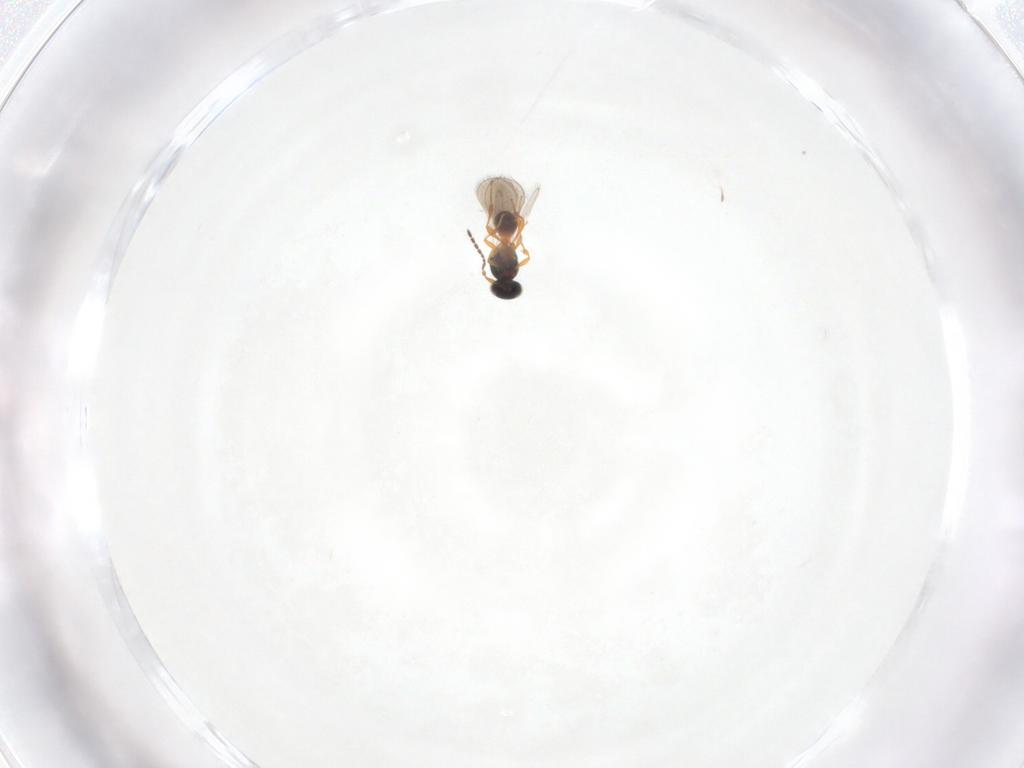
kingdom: Animalia
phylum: Arthropoda
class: Insecta
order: Hymenoptera
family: Platygastridae
